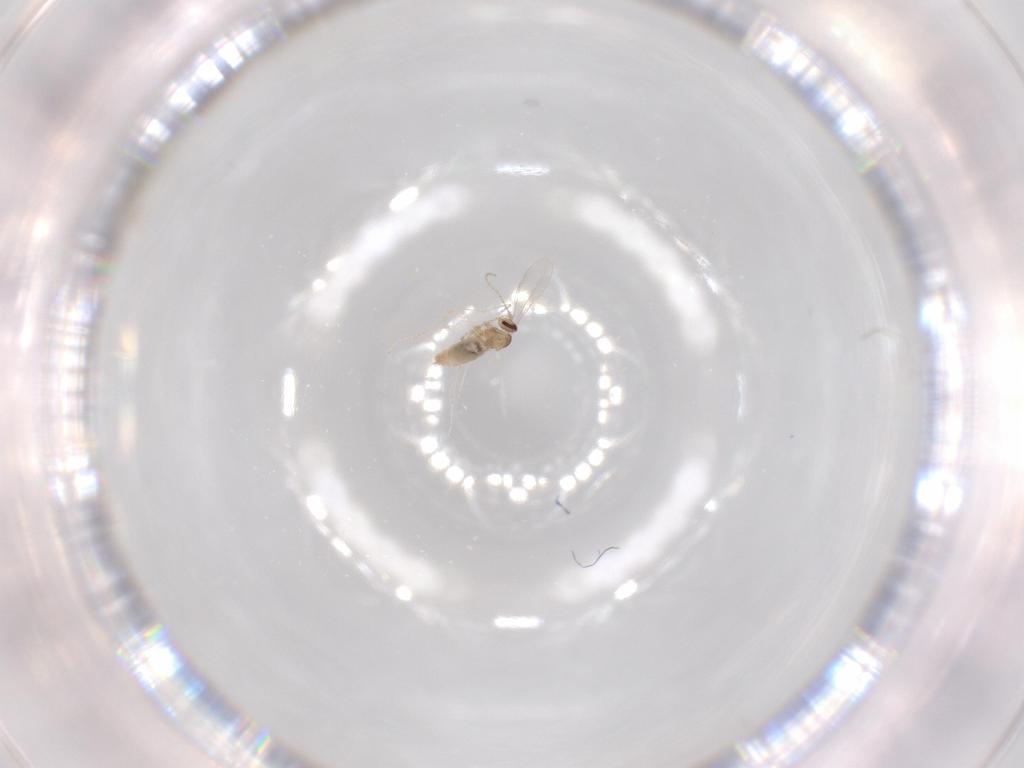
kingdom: Animalia
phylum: Arthropoda
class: Insecta
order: Diptera
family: Cecidomyiidae
